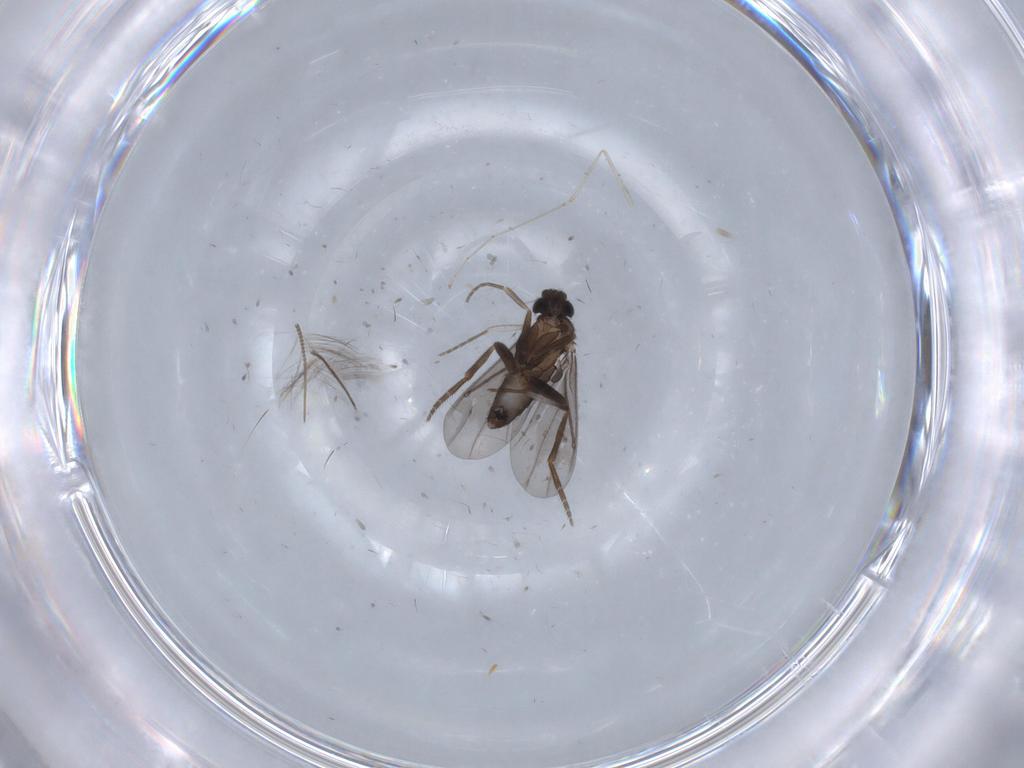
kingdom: Animalia
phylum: Arthropoda
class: Insecta
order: Diptera
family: Cecidomyiidae
